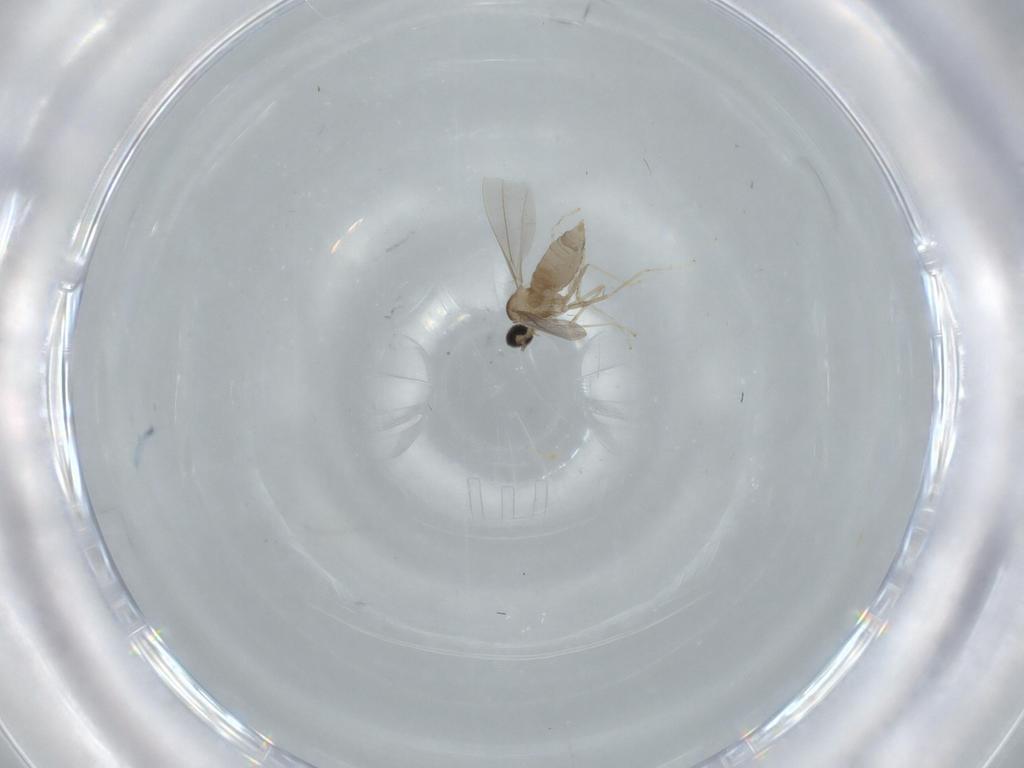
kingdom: Animalia
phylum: Arthropoda
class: Insecta
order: Diptera
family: Cecidomyiidae
